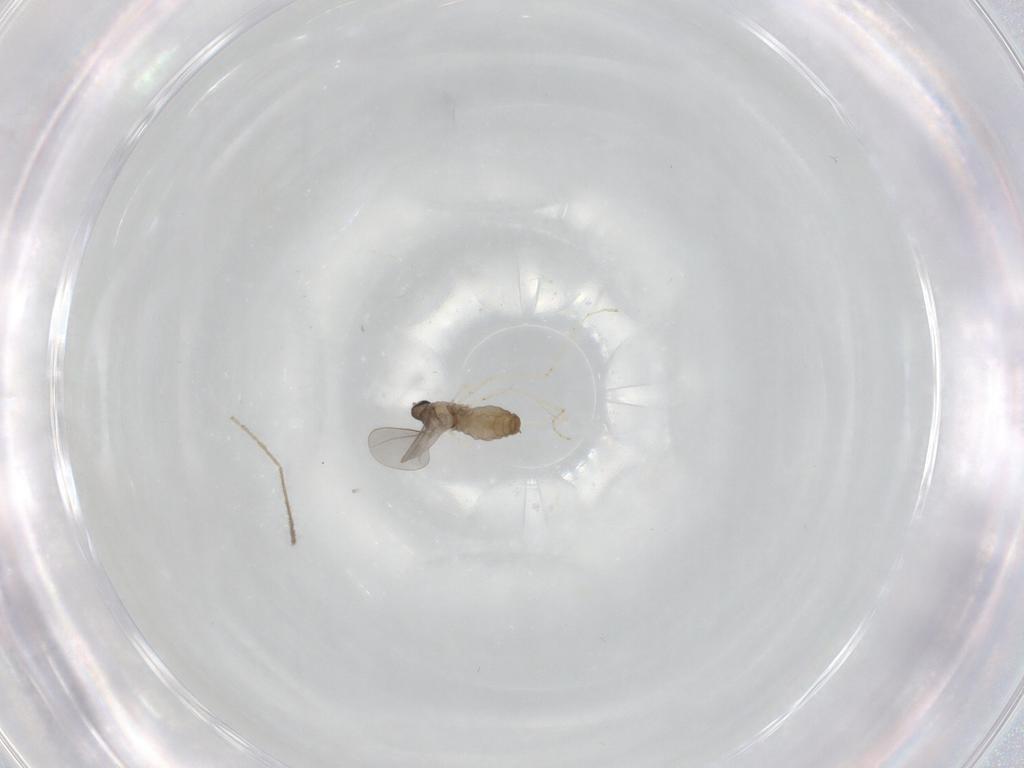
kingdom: Animalia
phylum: Arthropoda
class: Insecta
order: Diptera
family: Chironomidae
